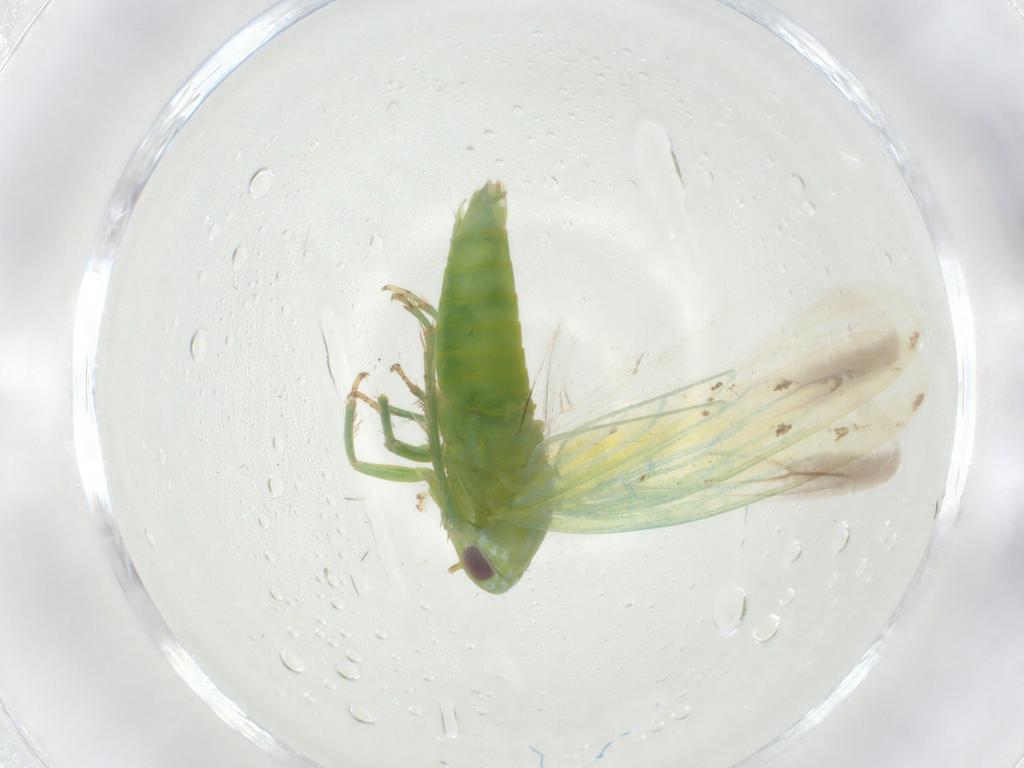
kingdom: Animalia
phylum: Arthropoda
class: Insecta
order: Hemiptera
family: Cicadellidae
